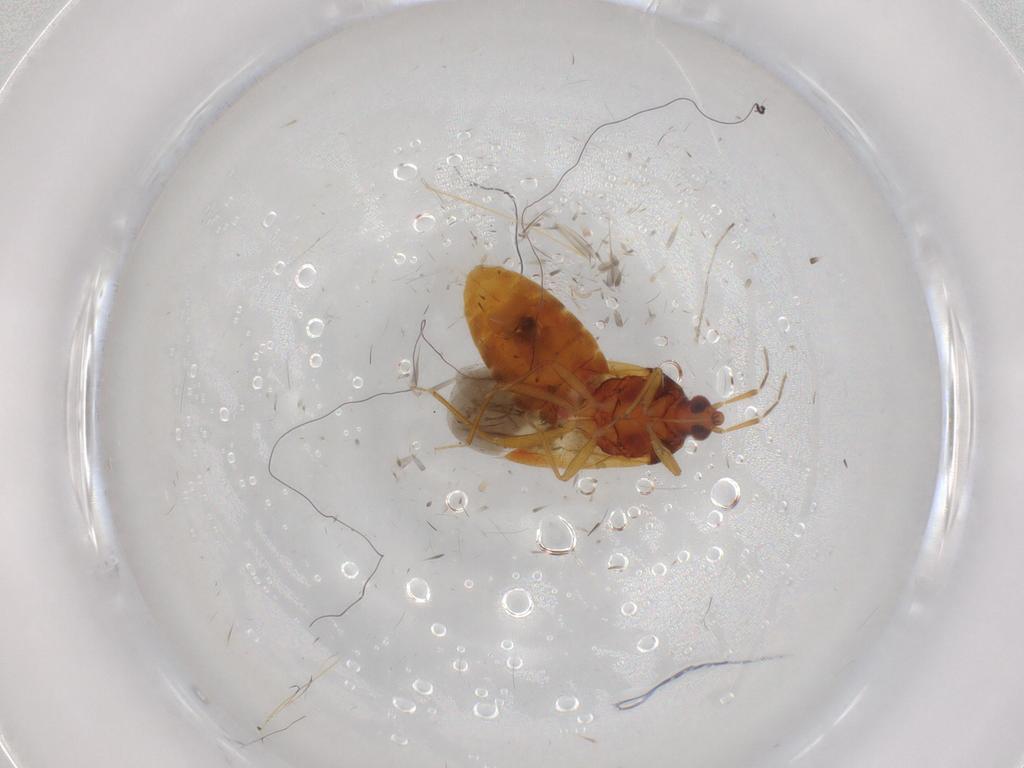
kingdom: Animalia
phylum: Arthropoda
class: Insecta
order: Hemiptera
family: Anthocoridae
